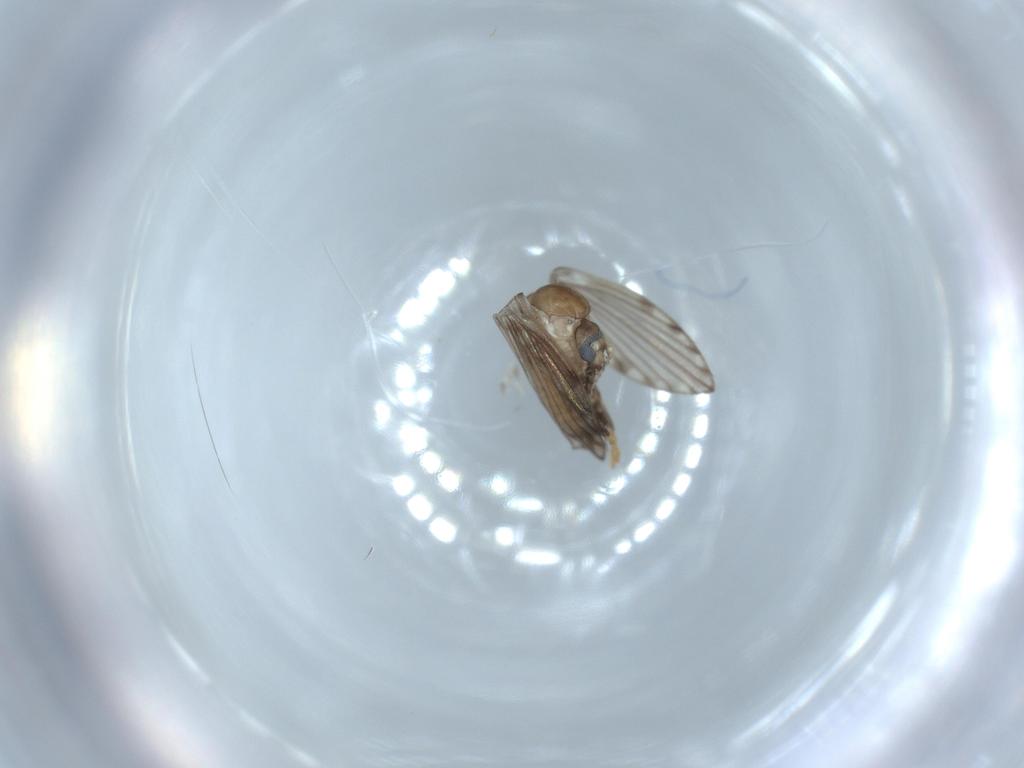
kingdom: Animalia
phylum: Arthropoda
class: Insecta
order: Diptera
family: Psychodidae
